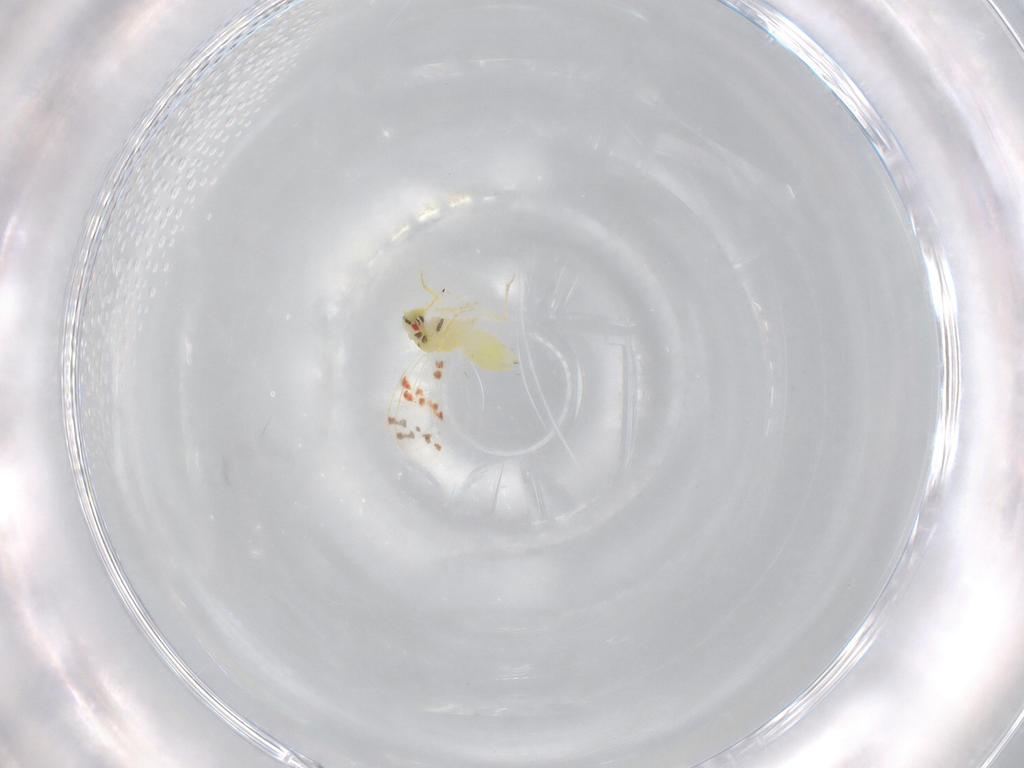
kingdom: Animalia
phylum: Arthropoda
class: Insecta
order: Hemiptera
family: Aleyrodidae
